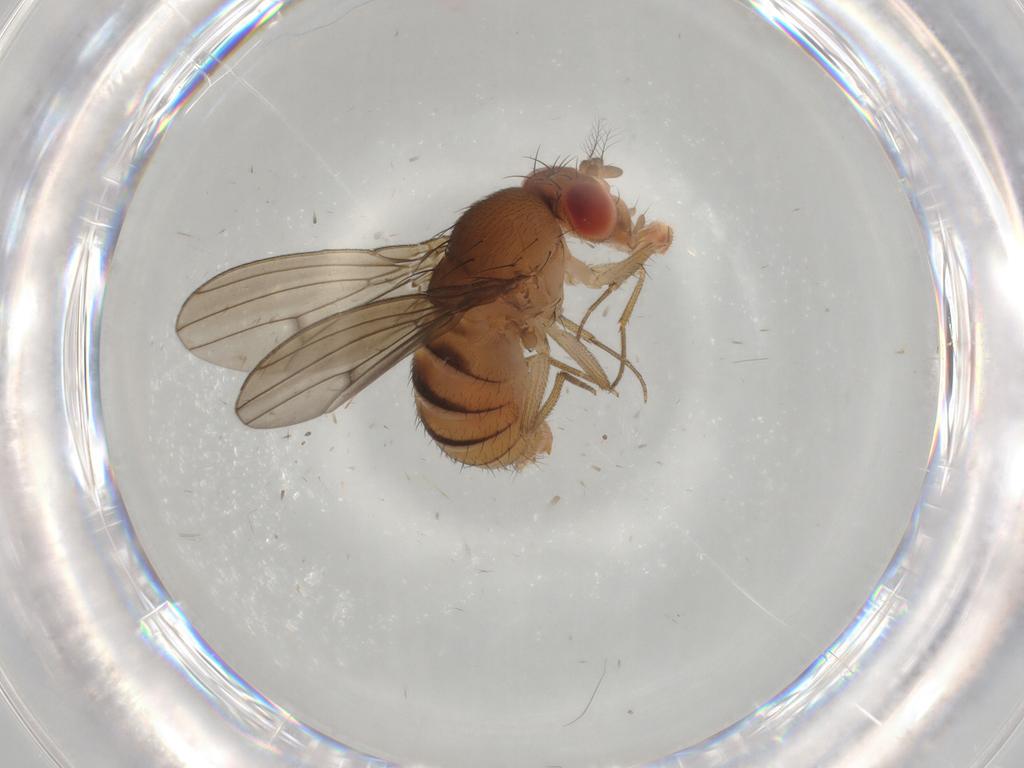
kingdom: Animalia
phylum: Arthropoda
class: Insecta
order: Diptera
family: Drosophilidae
